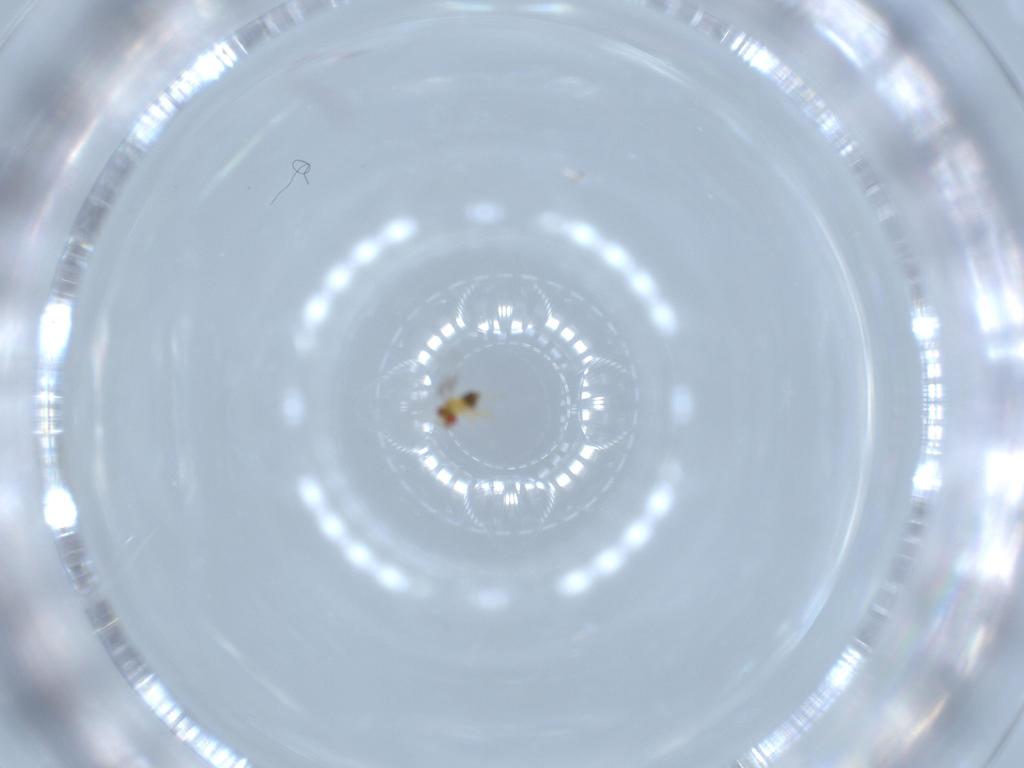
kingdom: Animalia
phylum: Arthropoda
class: Insecta
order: Hymenoptera
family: Trichogrammatidae
